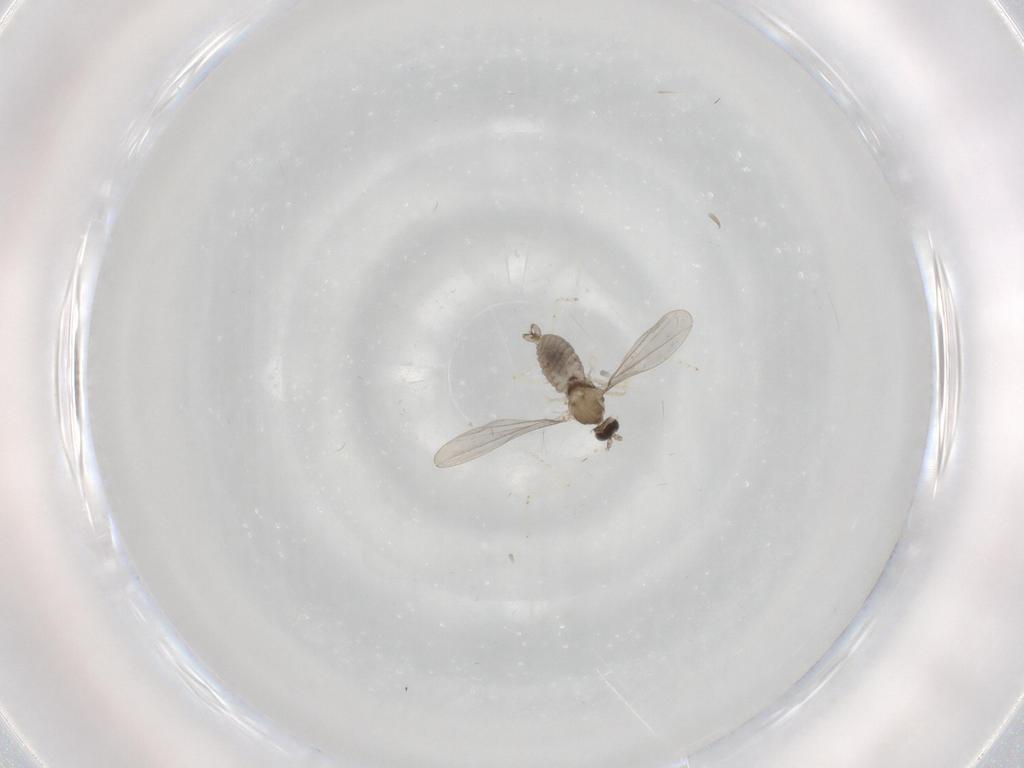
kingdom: Animalia
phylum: Arthropoda
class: Insecta
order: Diptera
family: Cecidomyiidae
